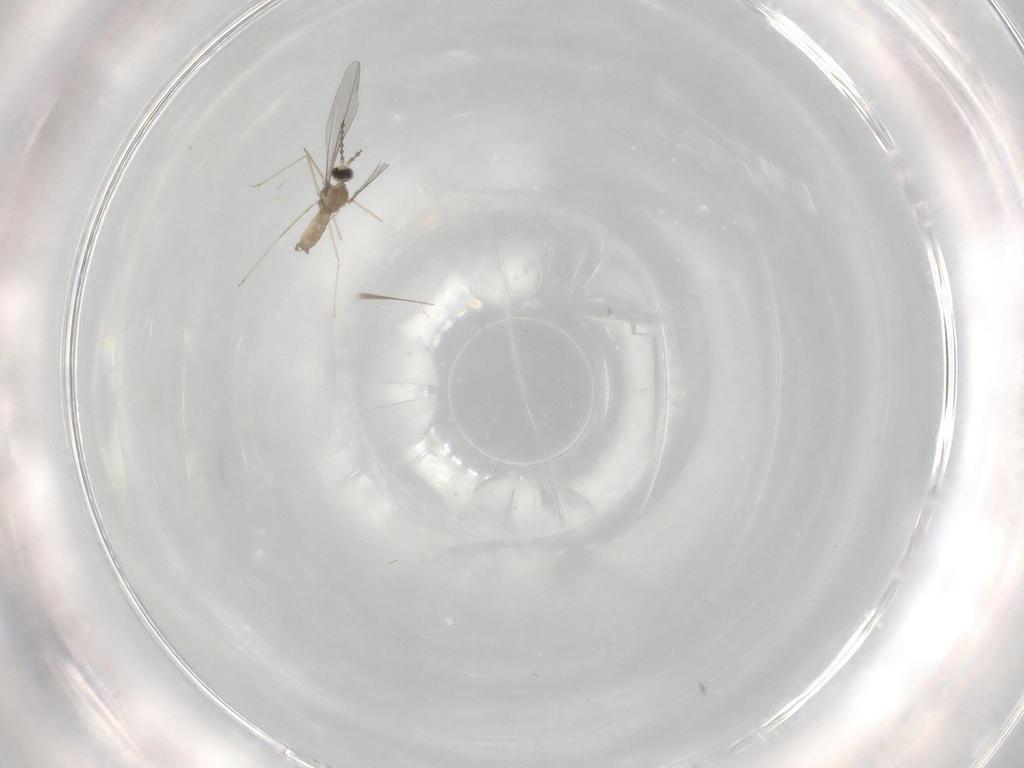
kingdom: Animalia
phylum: Arthropoda
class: Insecta
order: Diptera
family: Cecidomyiidae
